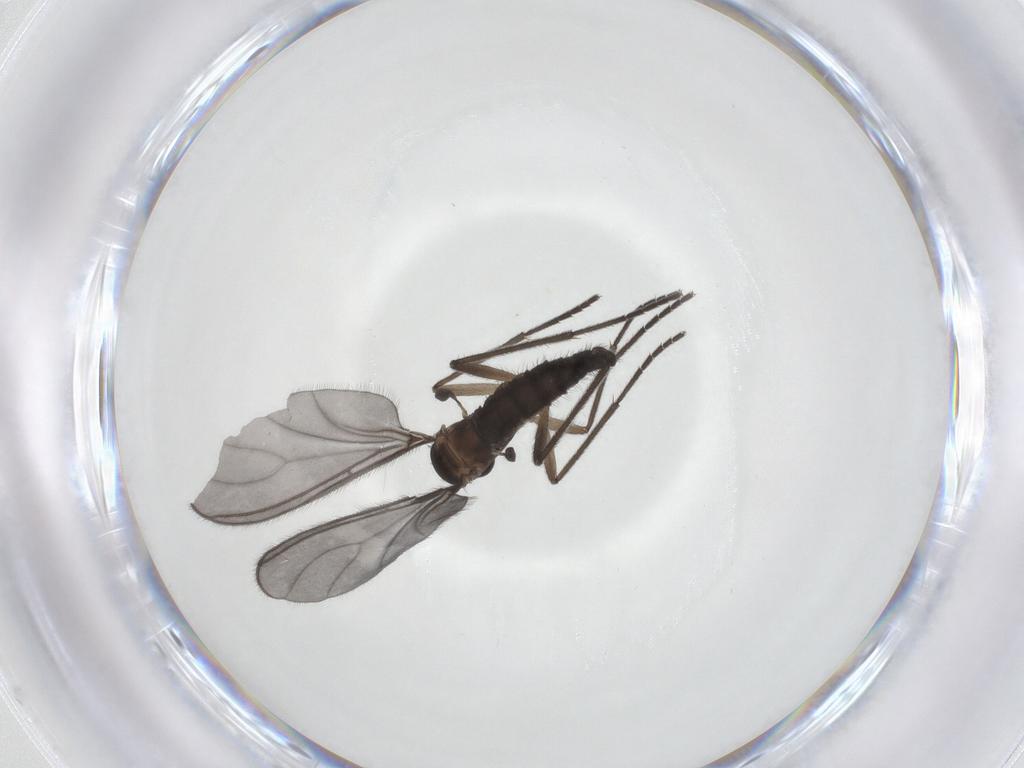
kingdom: Animalia
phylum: Arthropoda
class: Insecta
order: Diptera
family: Sciaridae
